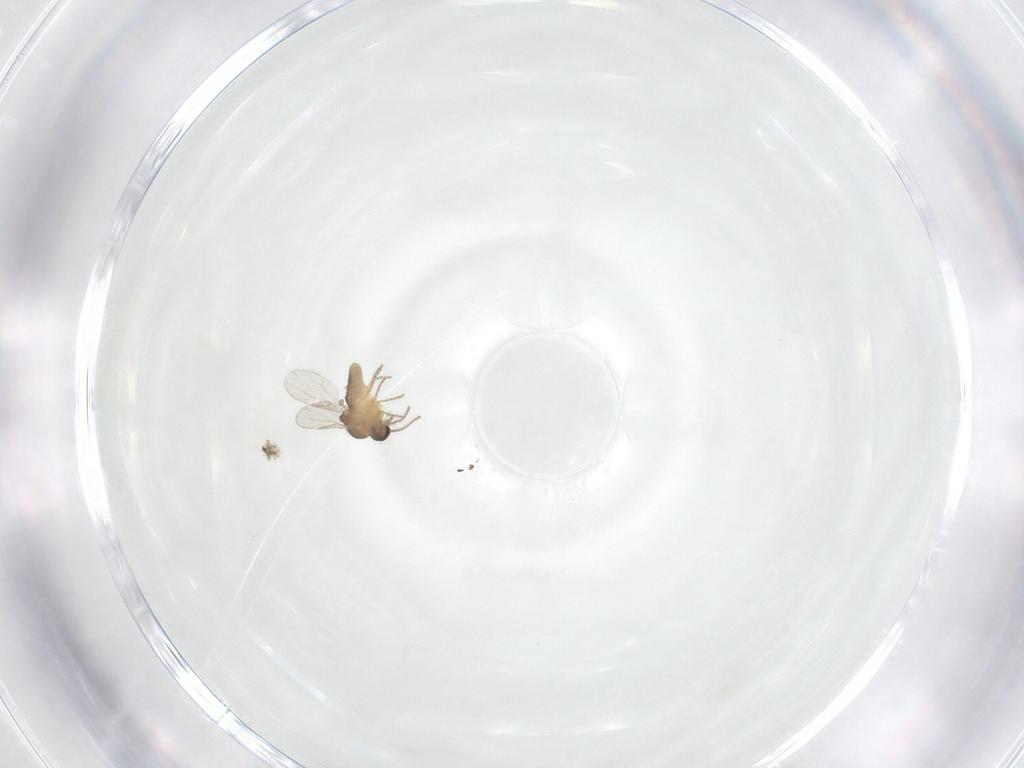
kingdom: Animalia
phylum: Arthropoda
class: Insecta
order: Diptera
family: Ceratopogonidae
